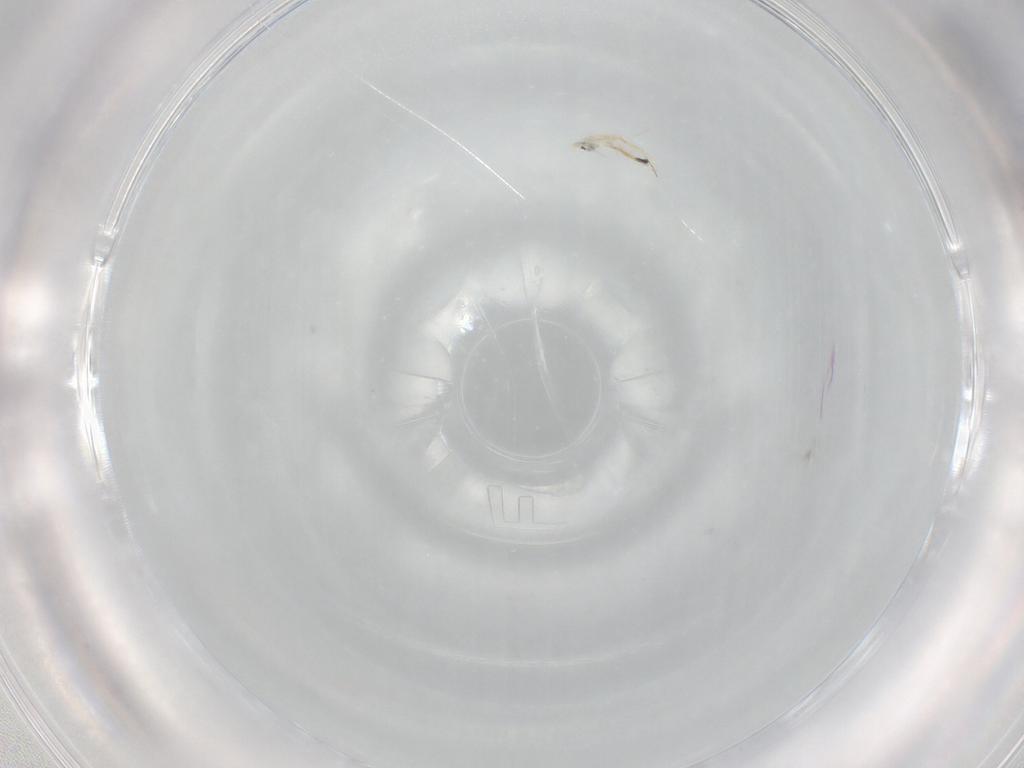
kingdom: Animalia
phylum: Arthropoda
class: Collembola
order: Entomobryomorpha
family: Entomobryidae
